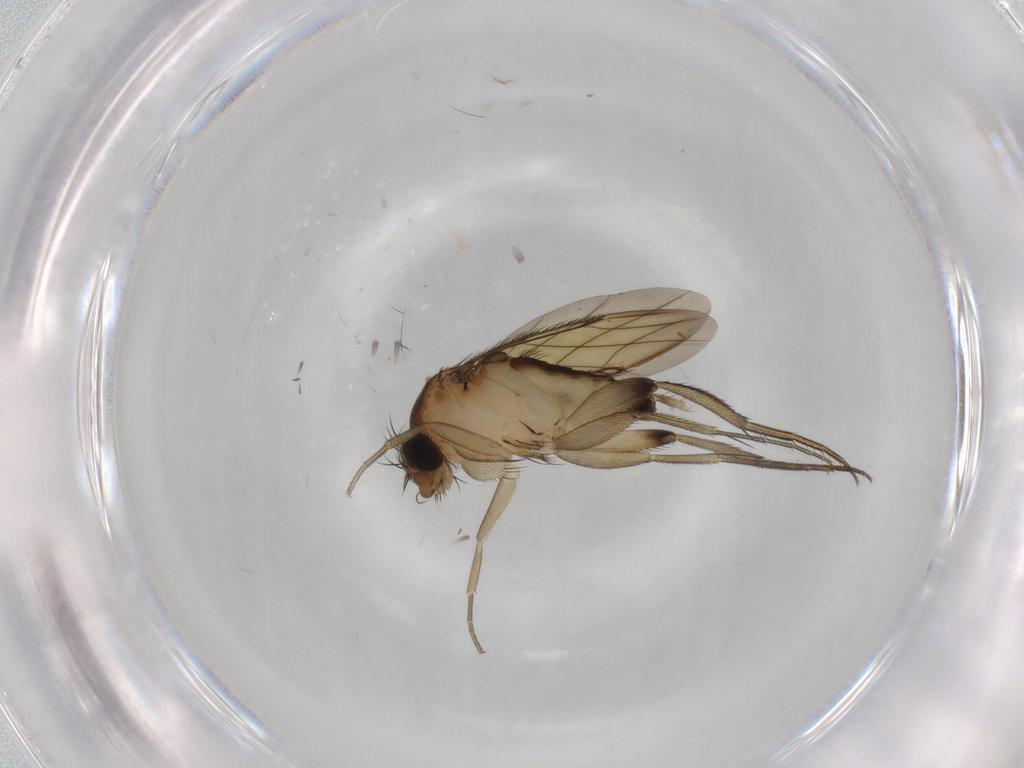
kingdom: Animalia
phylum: Arthropoda
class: Insecta
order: Diptera
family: Phoridae
